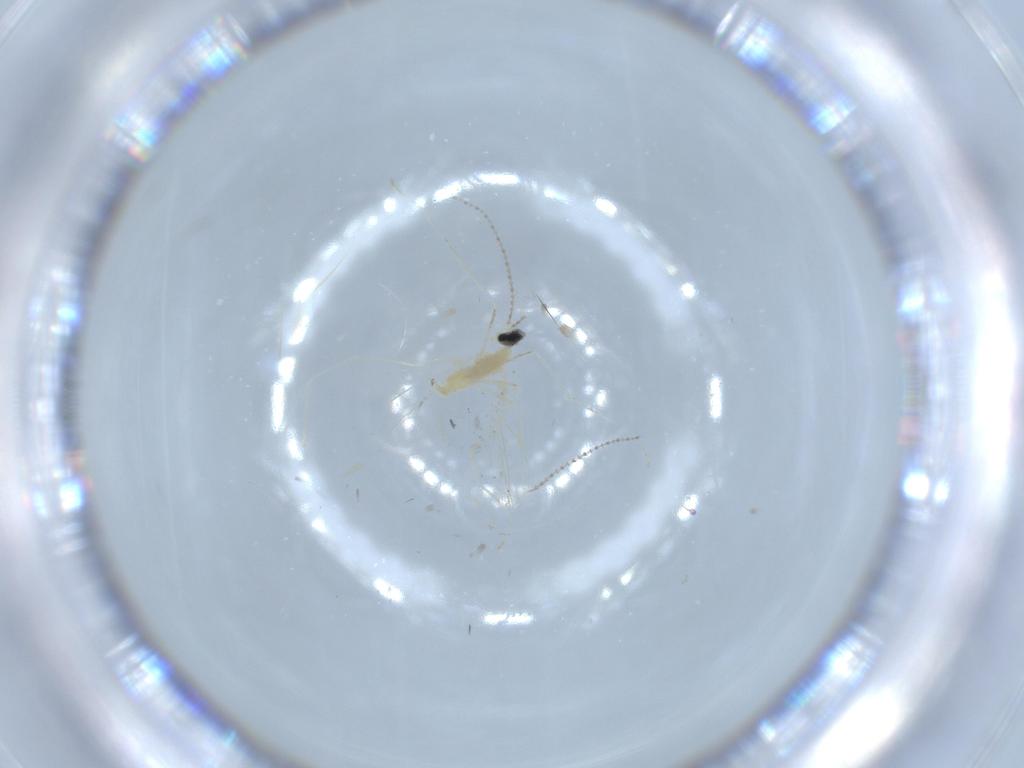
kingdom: Animalia
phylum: Arthropoda
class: Insecta
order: Diptera
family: Cecidomyiidae
